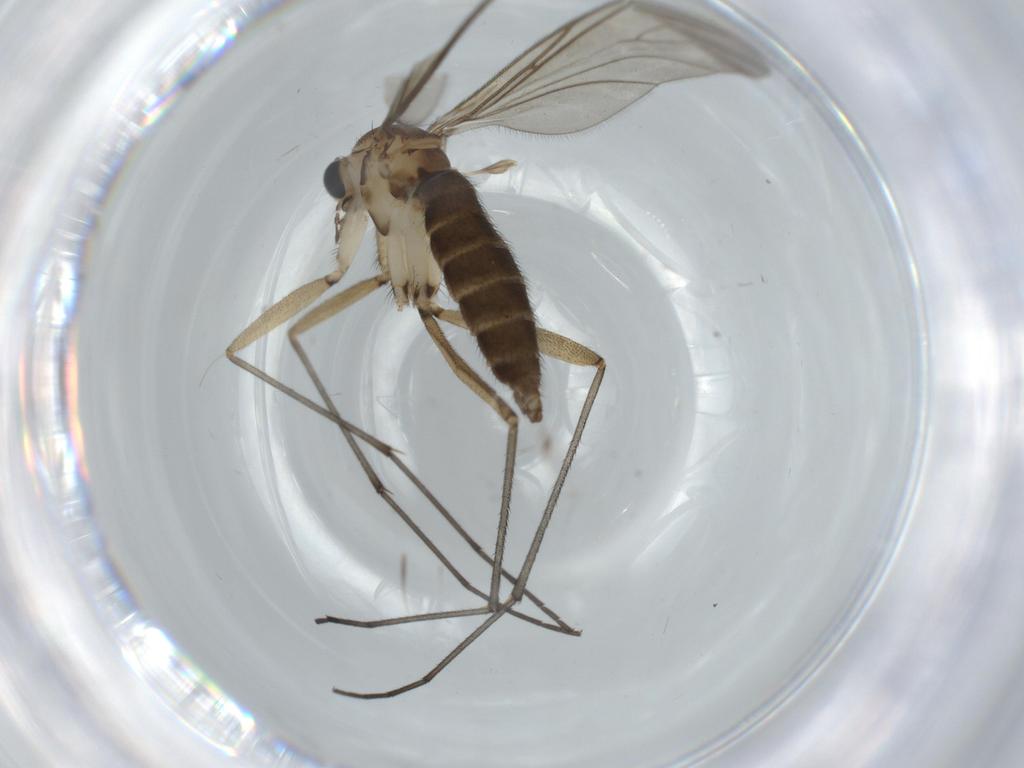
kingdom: Animalia
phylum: Arthropoda
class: Insecta
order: Diptera
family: Sciaridae
